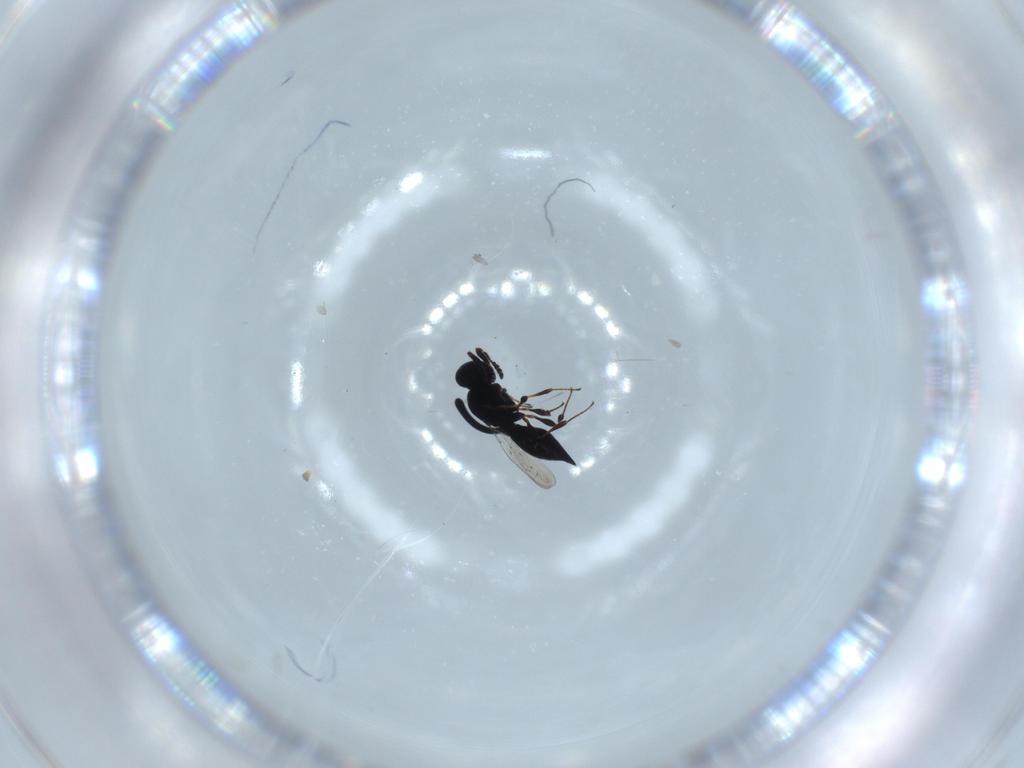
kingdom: Animalia
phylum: Arthropoda
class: Insecta
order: Hymenoptera
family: Platygastridae
